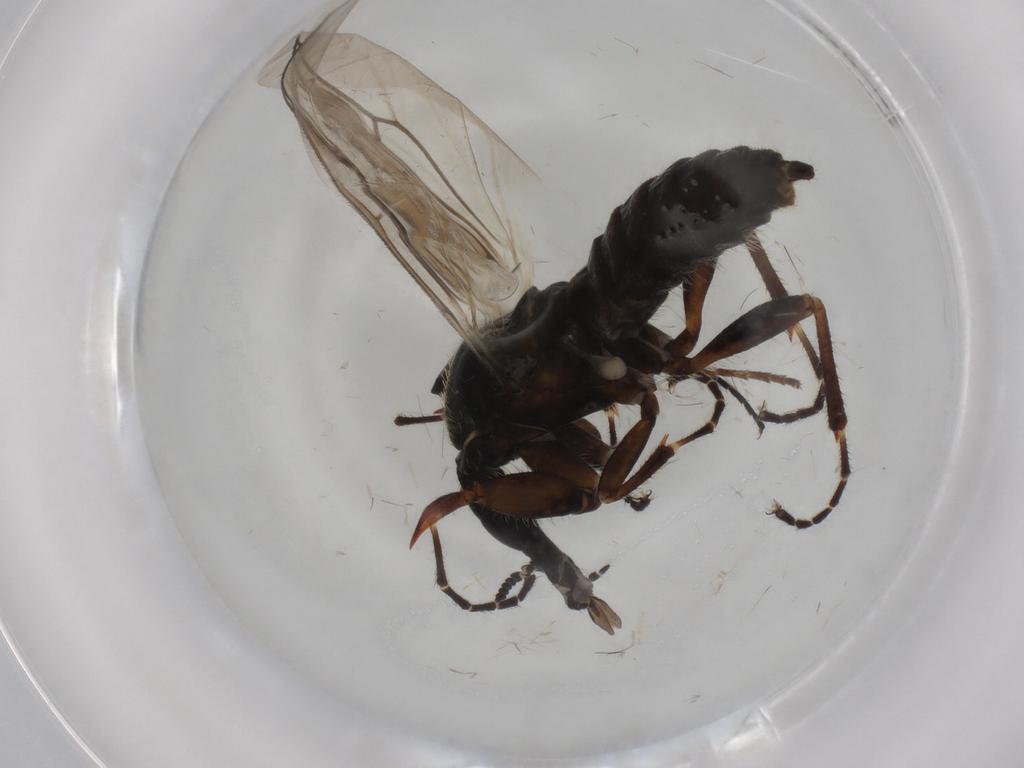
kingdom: Animalia
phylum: Arthropoda
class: Insecta
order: Diptera
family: Bibionidae
